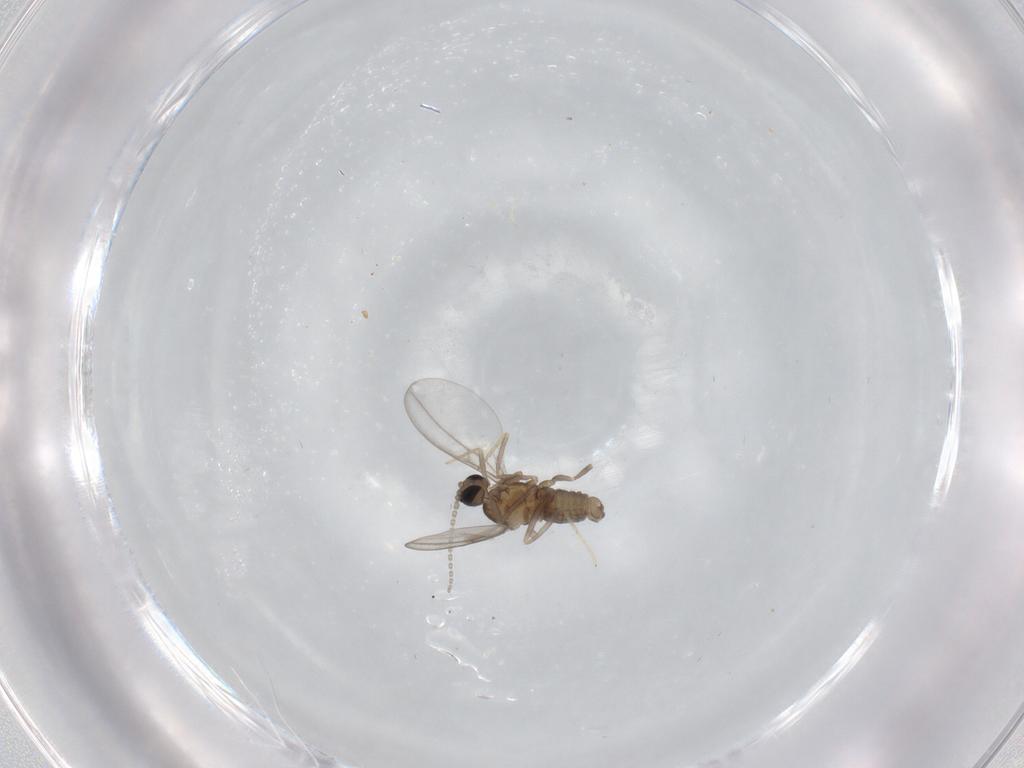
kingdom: Animalia
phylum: Arthropoda
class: Insecta
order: Diptera
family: Cecidomyiidae
